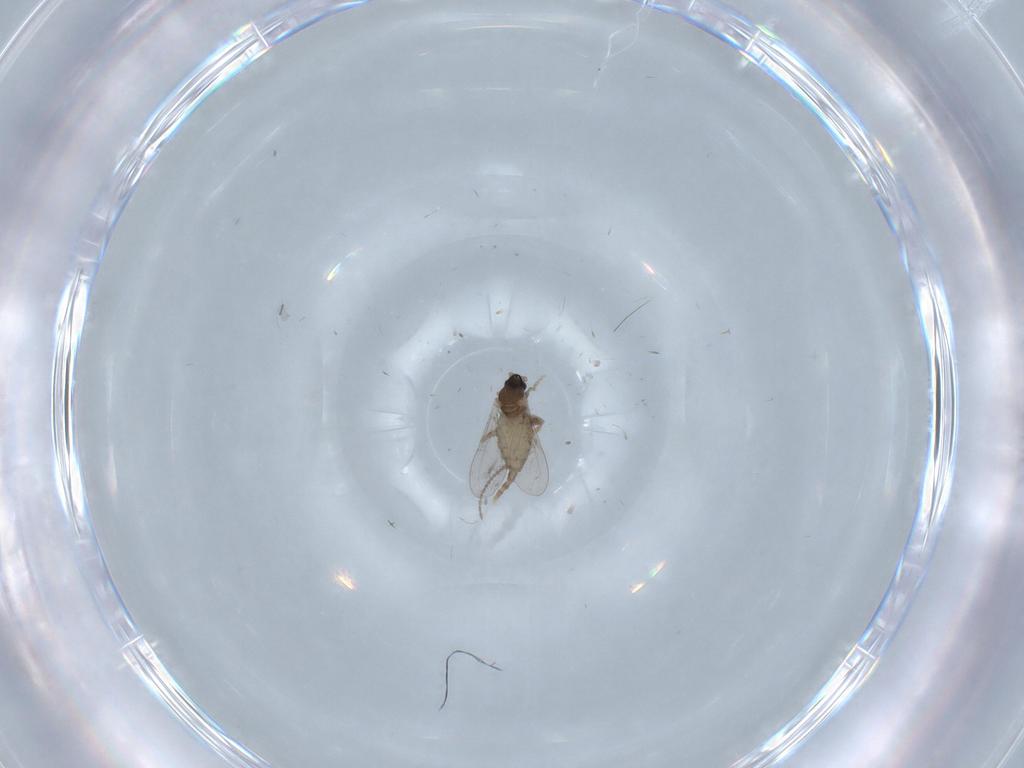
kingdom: Animalia
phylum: Arthropoda
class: Insecta
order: Diptera
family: Cecidomyiidae
